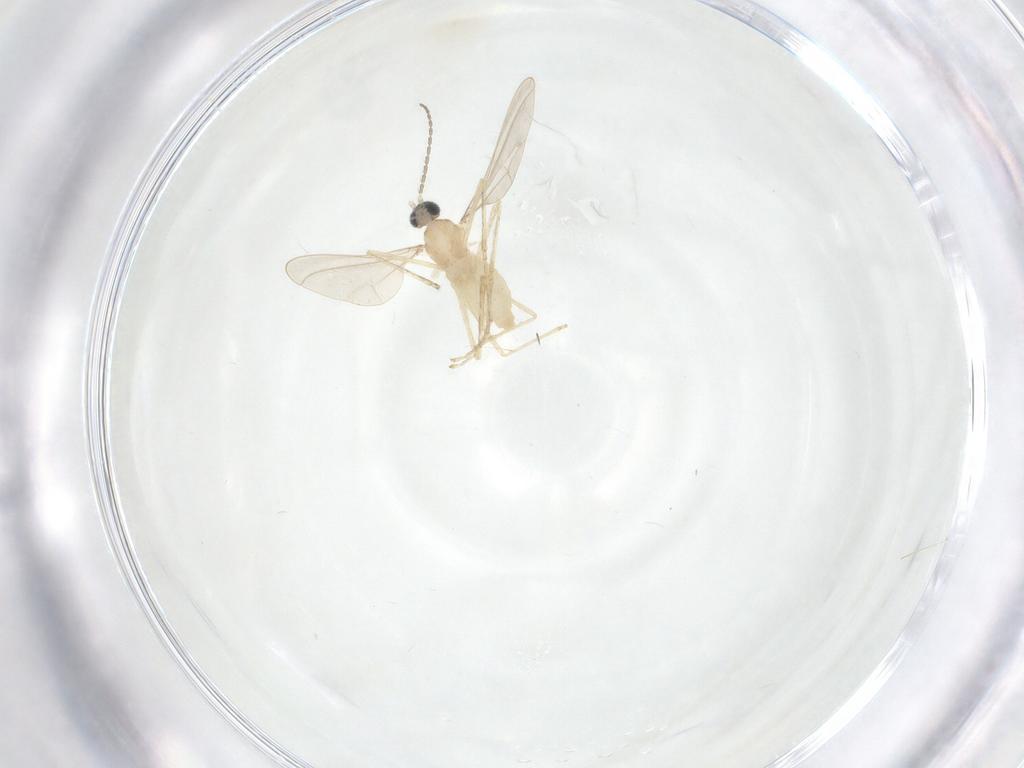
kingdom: Animalia
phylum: Arthropoda
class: Insecta
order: Diptera
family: Cecidomyiidae
